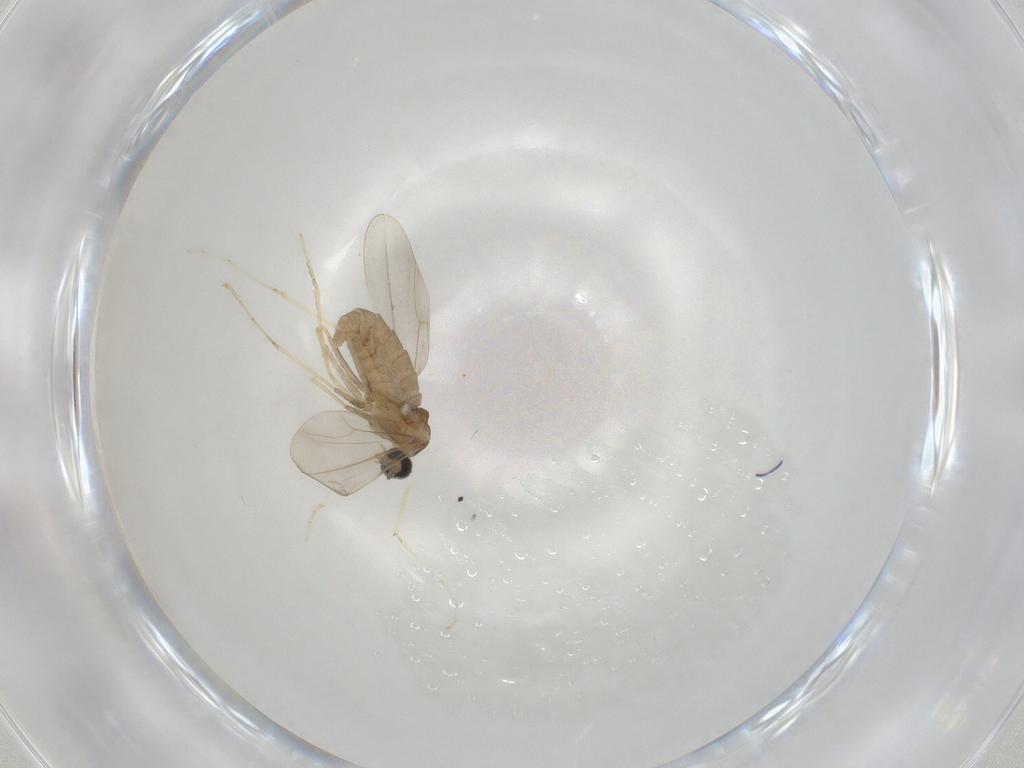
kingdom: Animalia
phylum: Arthropoda
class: Insecta
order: Diptera
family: Cecidomyiidae
